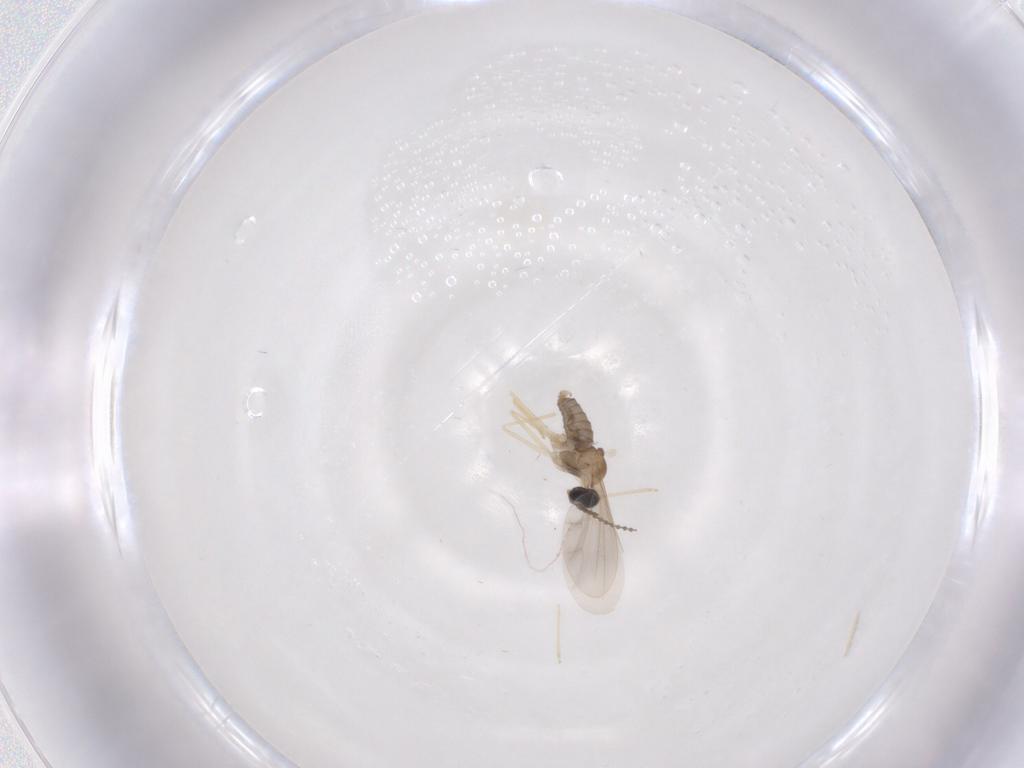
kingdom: Animalia
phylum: Arthropoda
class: Insecta
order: Diptera
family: Cecidomyiidae
